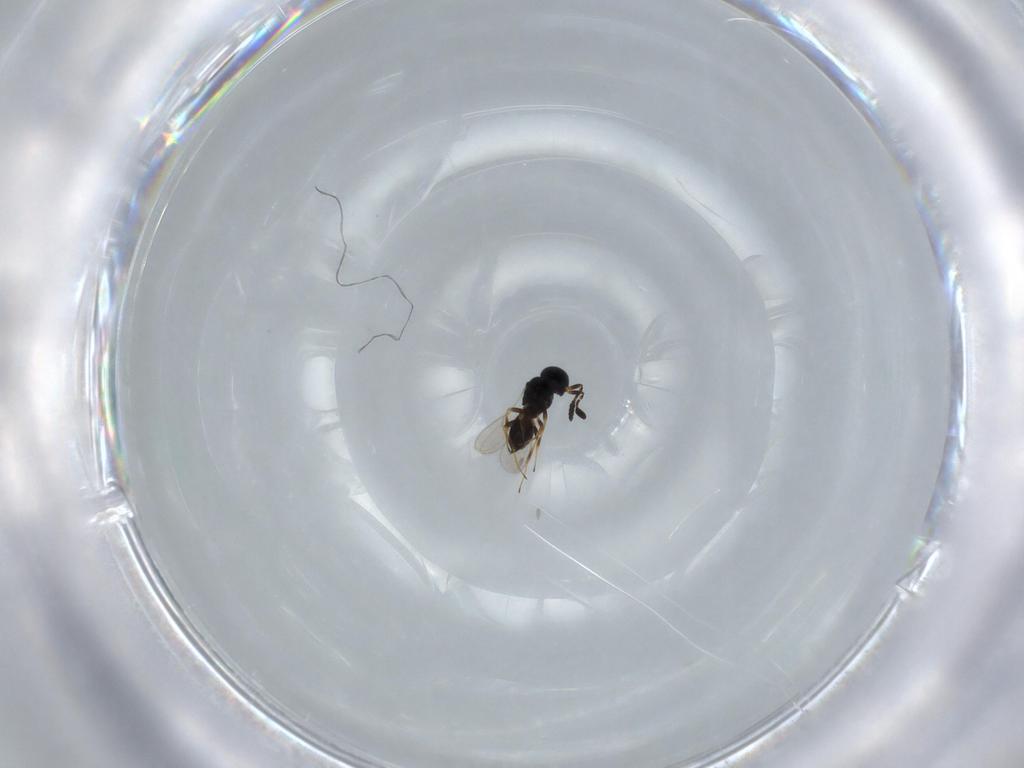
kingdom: Animalia
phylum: Arthropoda
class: Insecta
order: Hymenoptera
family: Scelionidae
